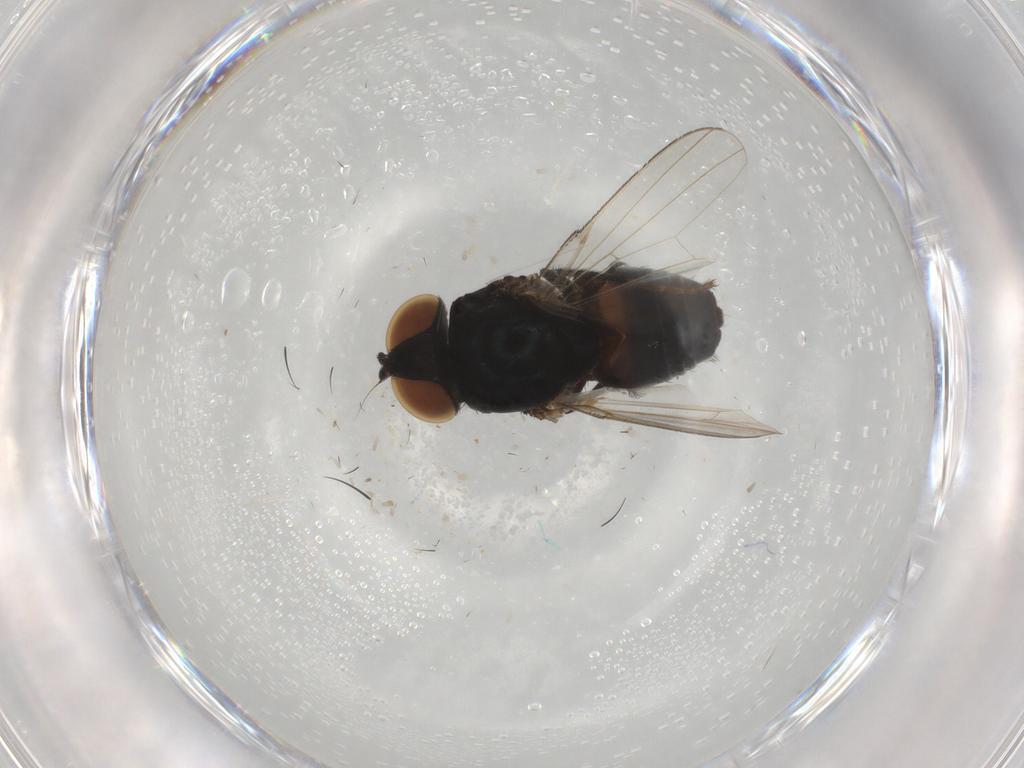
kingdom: Animalia
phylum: Arthropoda
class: Insecta
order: Diptera
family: Milichiidae
